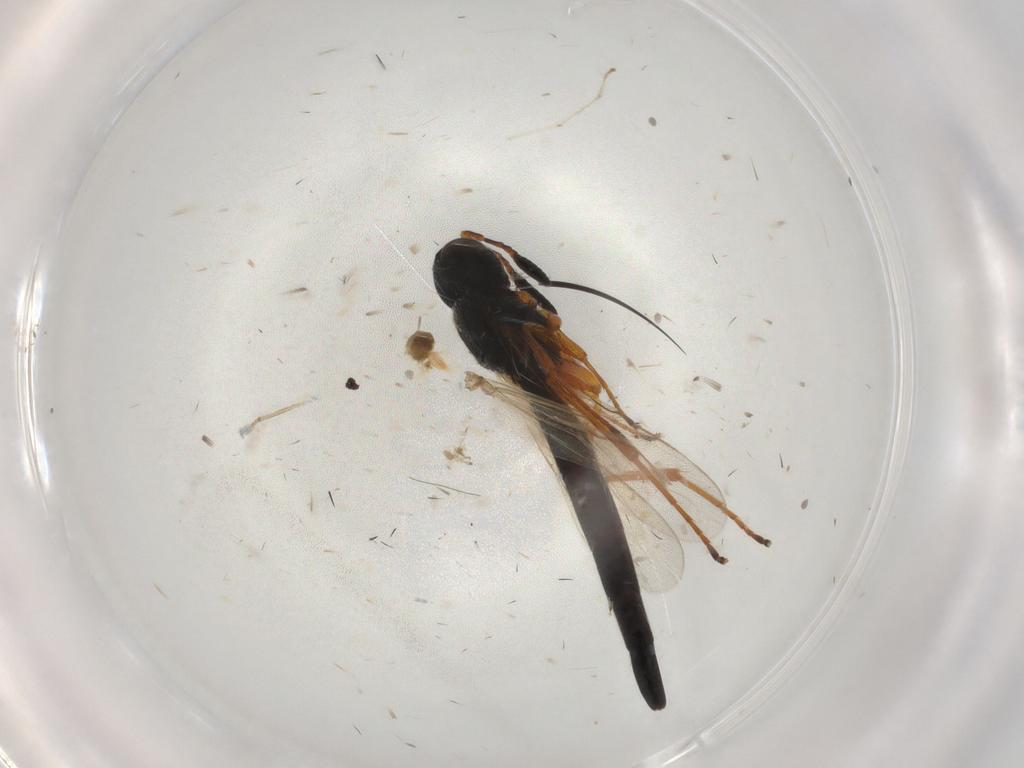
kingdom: Animalia
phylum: Arthropoda
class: Insecta
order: Hymenoptera
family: Scelionidae
